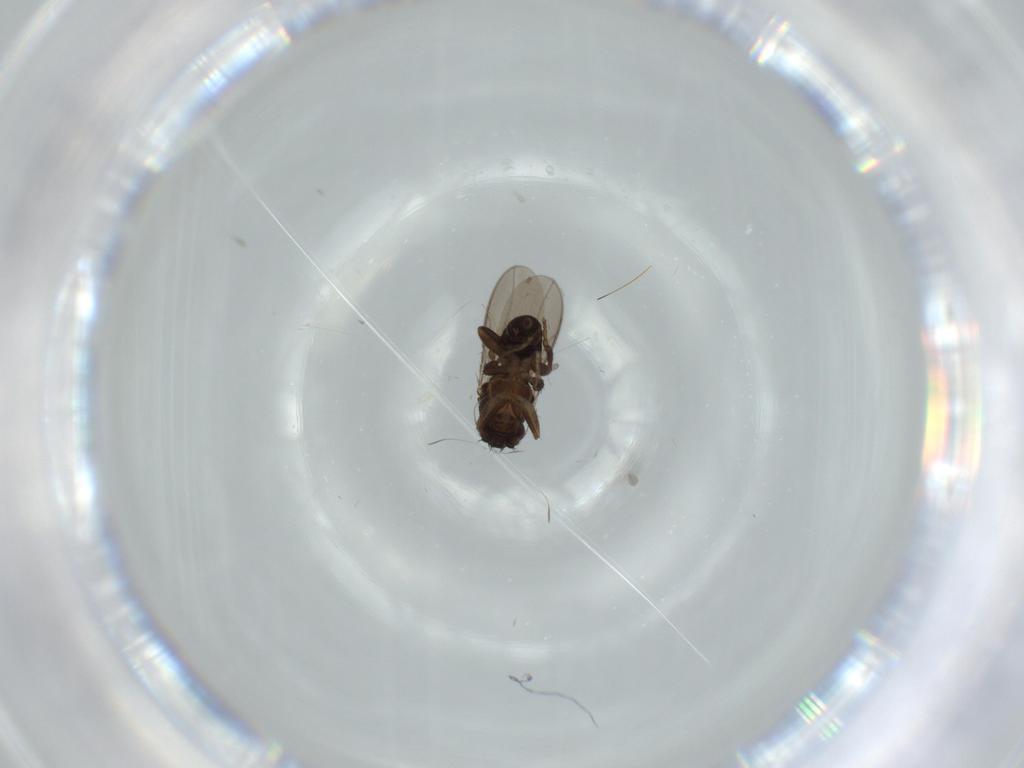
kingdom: Animalia
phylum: Arthropoda
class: Insecta
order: Diptera
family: Sphaeroceridae
